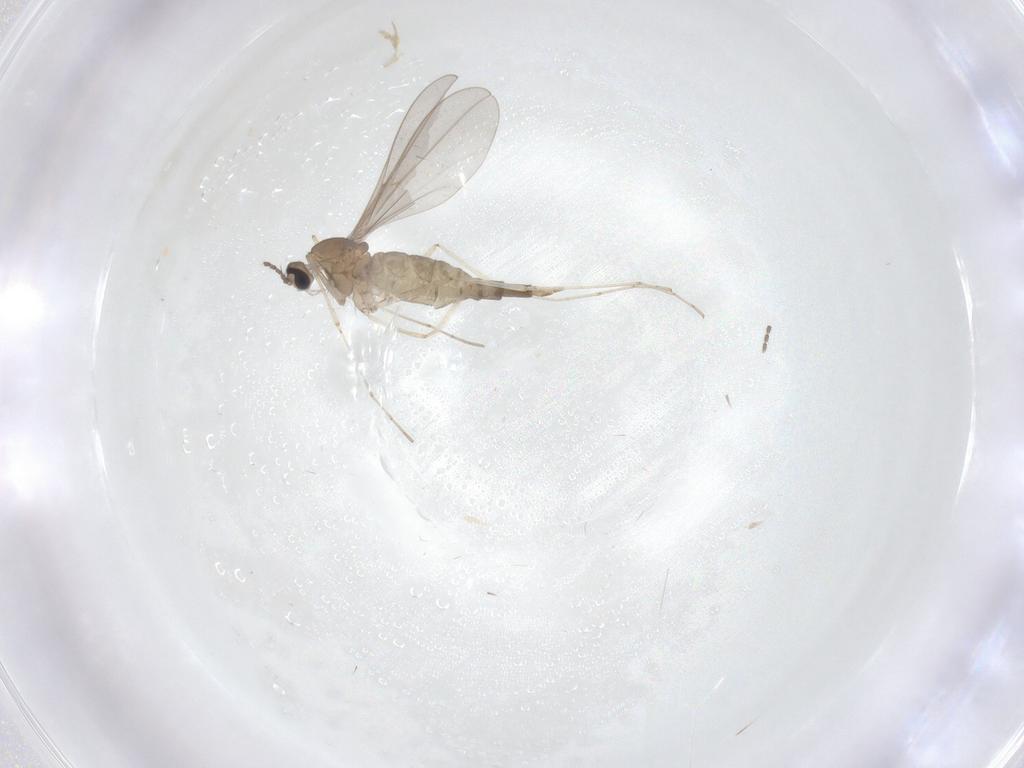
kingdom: Animalia
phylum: Arthropoda
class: Insecta
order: Diptera
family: Cecidomyiidae
